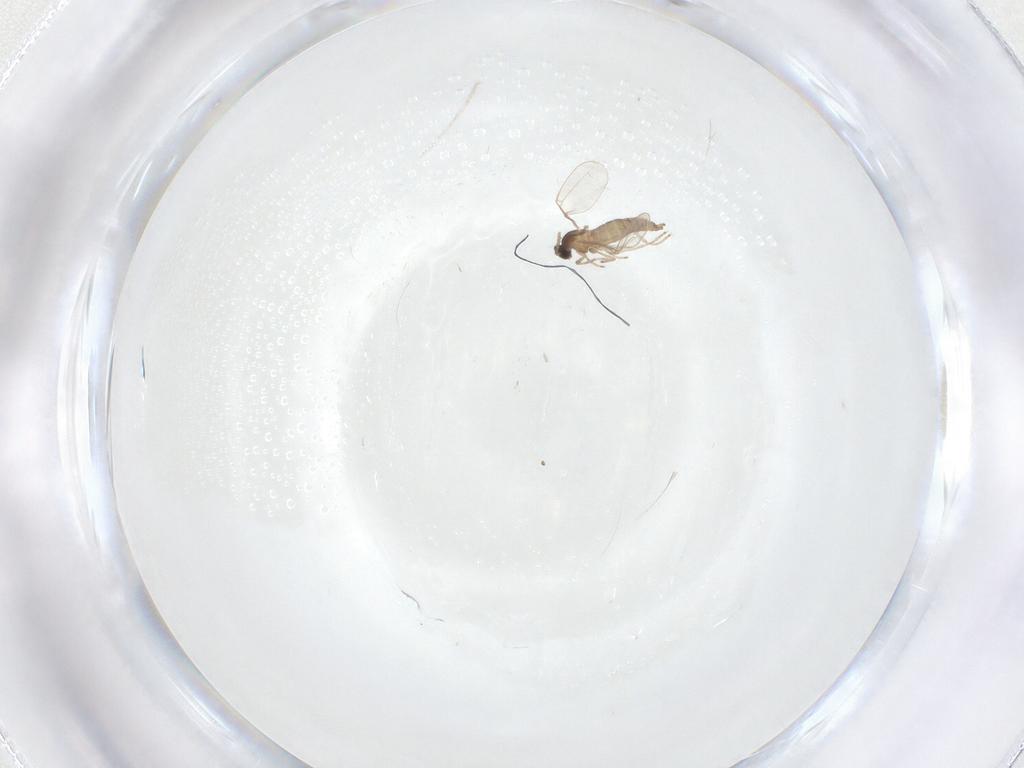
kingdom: Animalia
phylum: Arthropoda
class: Insecta
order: Diptera
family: Cecidomyiidae
